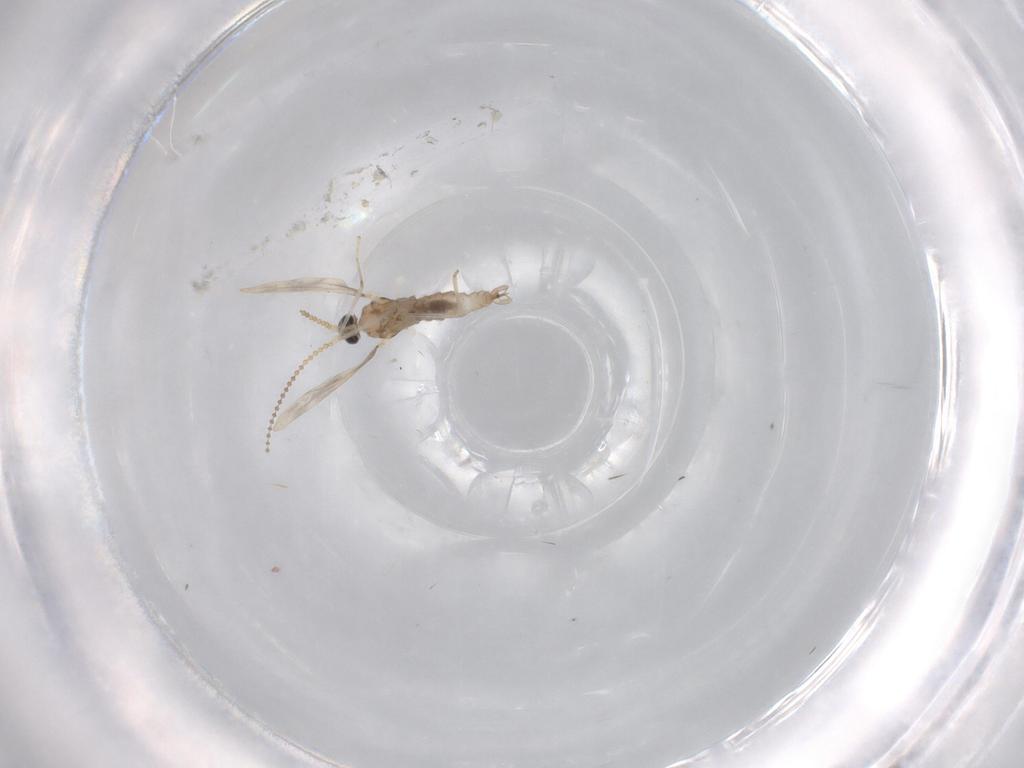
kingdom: Animalia
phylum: Arthropoda
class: Insecta
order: Diptera
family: Cecidomyiidae
